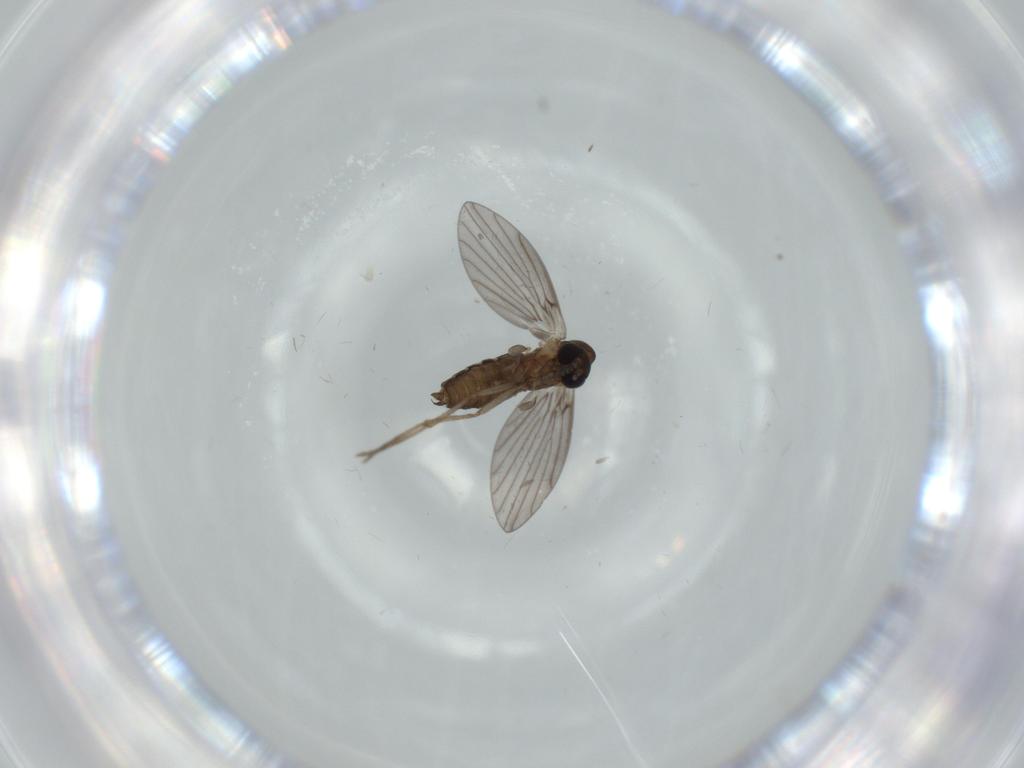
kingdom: Animalia
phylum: Arthropoda
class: Insecta
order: Diptera
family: Psychodidae
